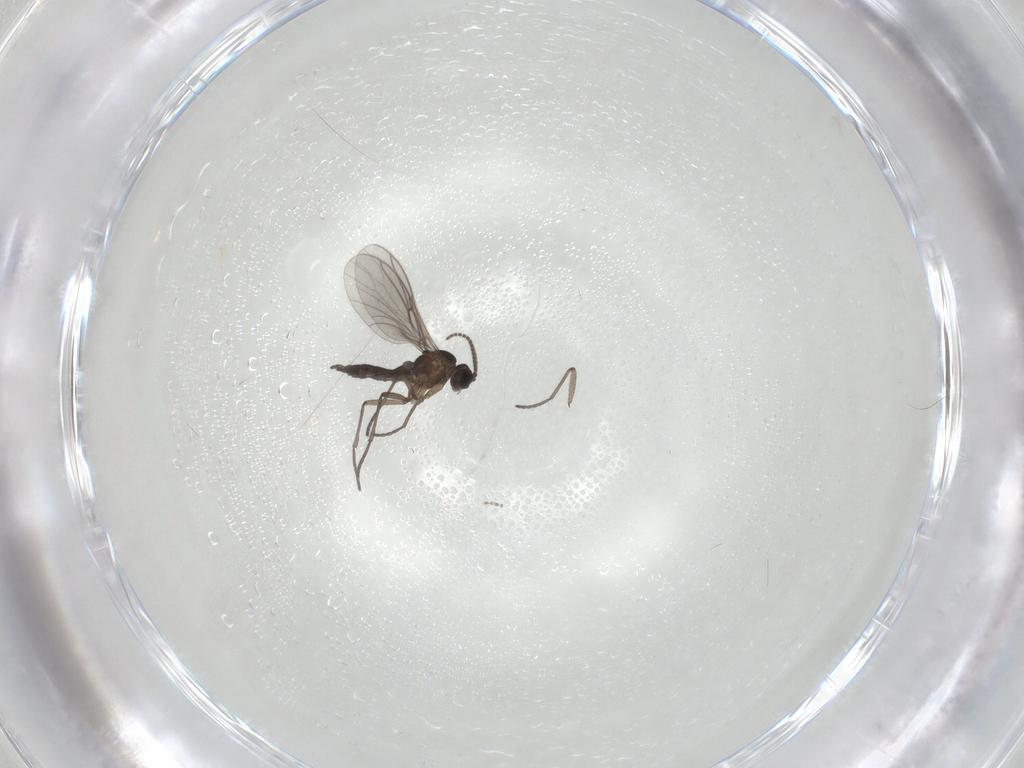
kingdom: Animalia
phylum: Arthropoda
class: Insecta
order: Diptera
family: Sciaridae
